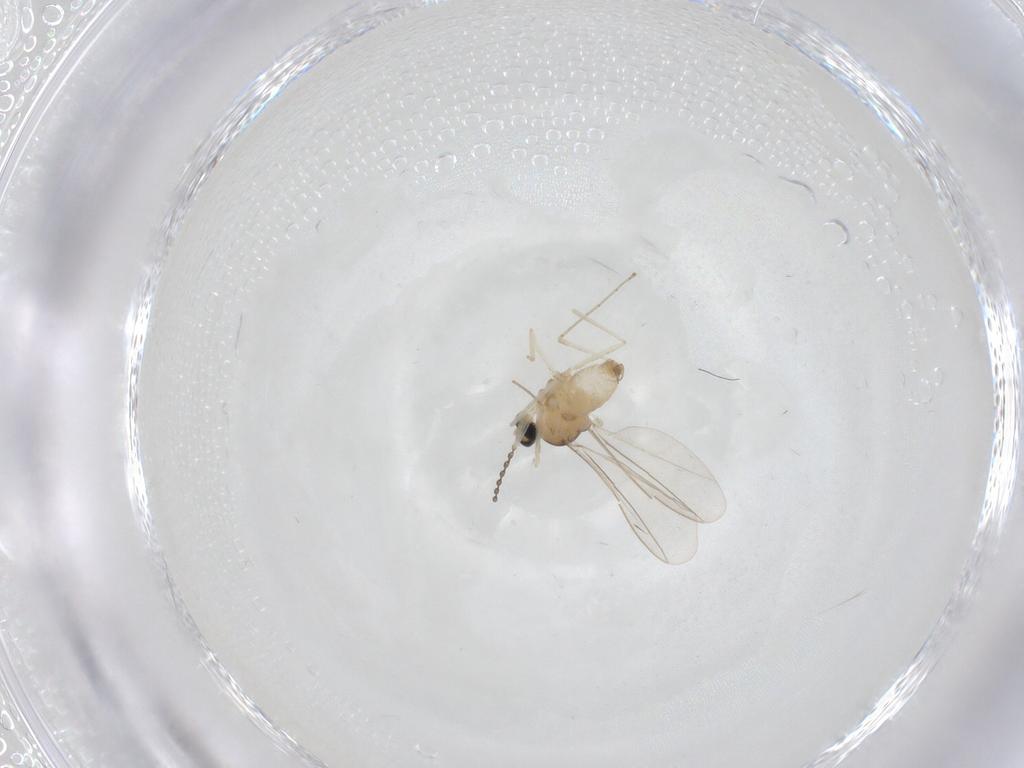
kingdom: Animalia
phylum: Arthropoda
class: Insecta
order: Diptera
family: Cecidomyiidae
